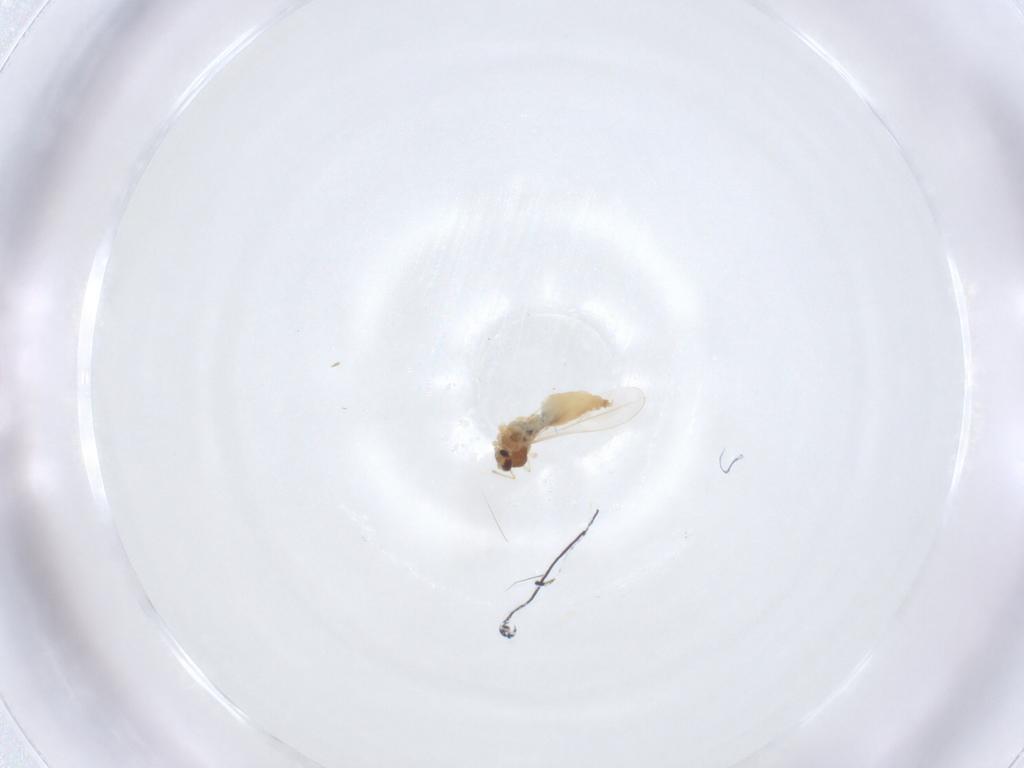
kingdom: Animalia
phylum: Arthropoda
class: Insecta
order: Diptera
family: Cecidomyiidae
